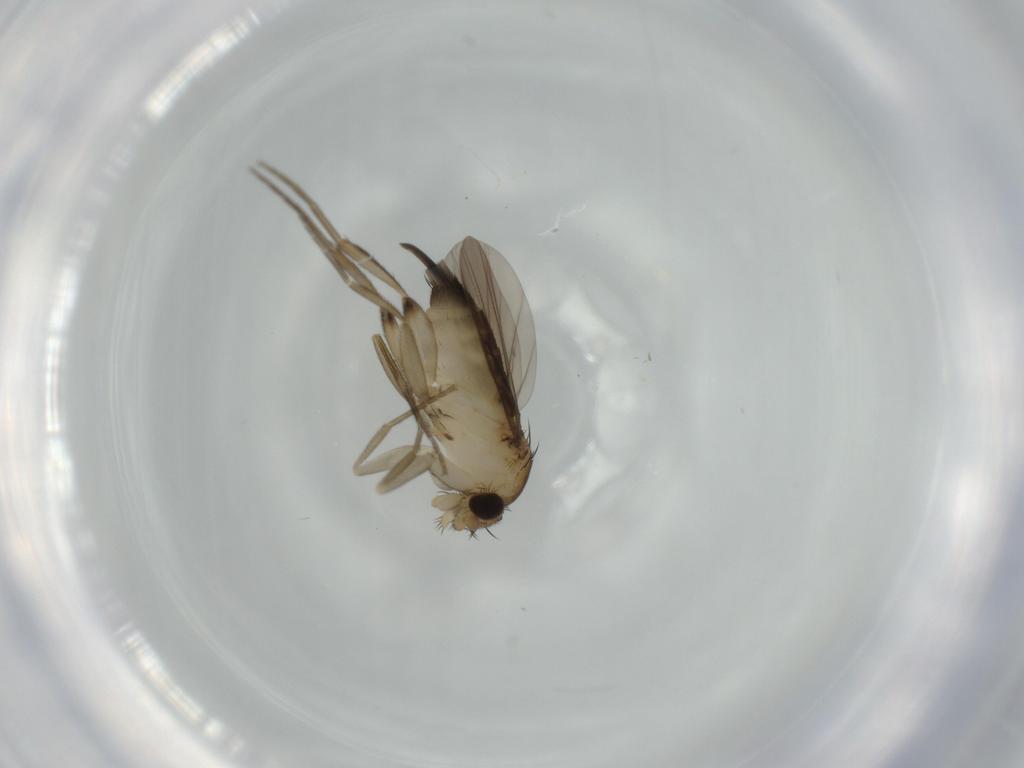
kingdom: Animalia
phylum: Arthropoda
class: Insecta
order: Diptera
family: Phoridae
